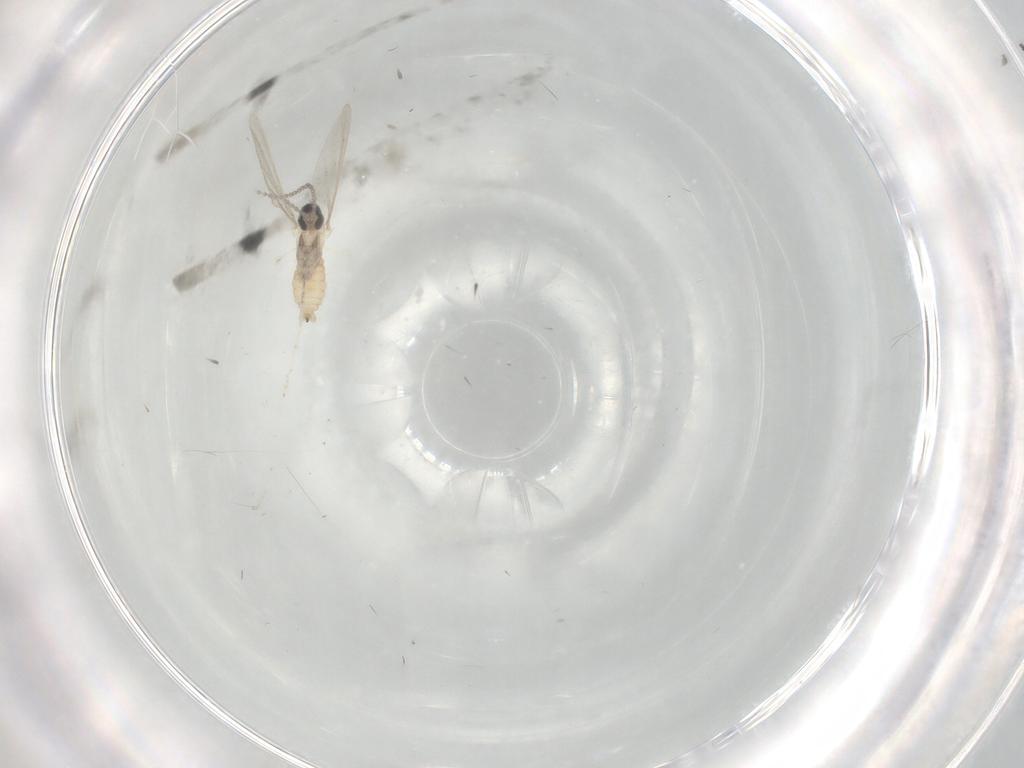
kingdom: Animalia
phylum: Arthropoda
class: Insecta
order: Diptera
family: Cecidomyiidae
